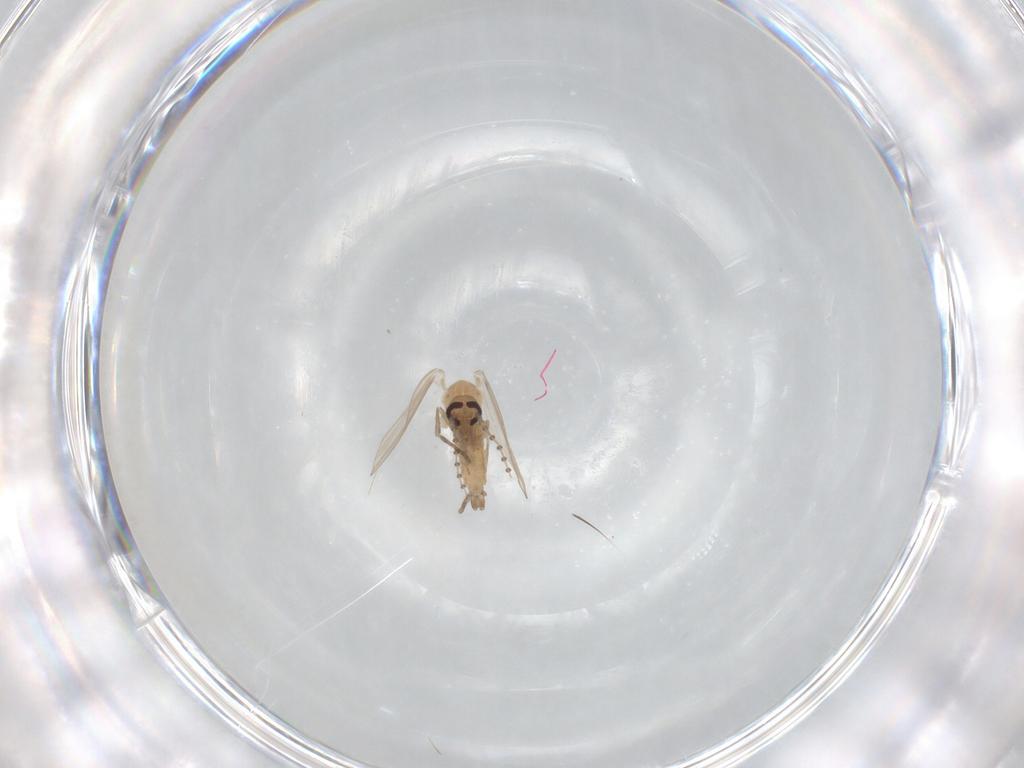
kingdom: Animalia
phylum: Arthropoda
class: Insecta
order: Diptera
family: Psychodidae
